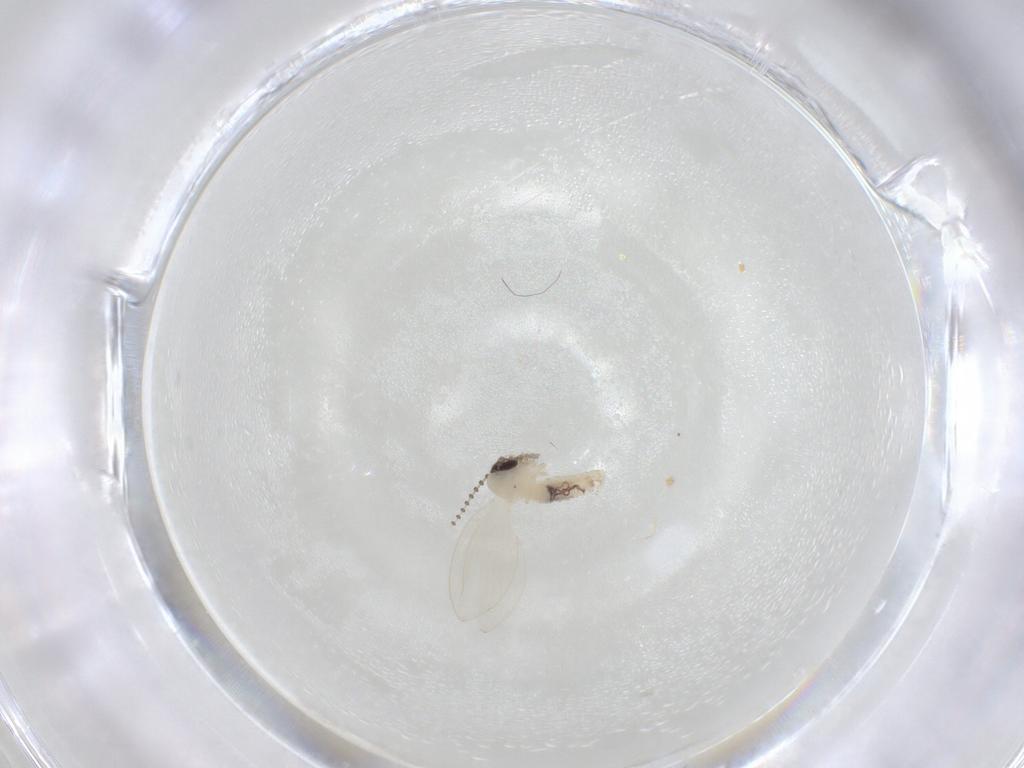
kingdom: Animalia
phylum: Arthropoda
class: Insecta
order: Diptera
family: Psychodidae
